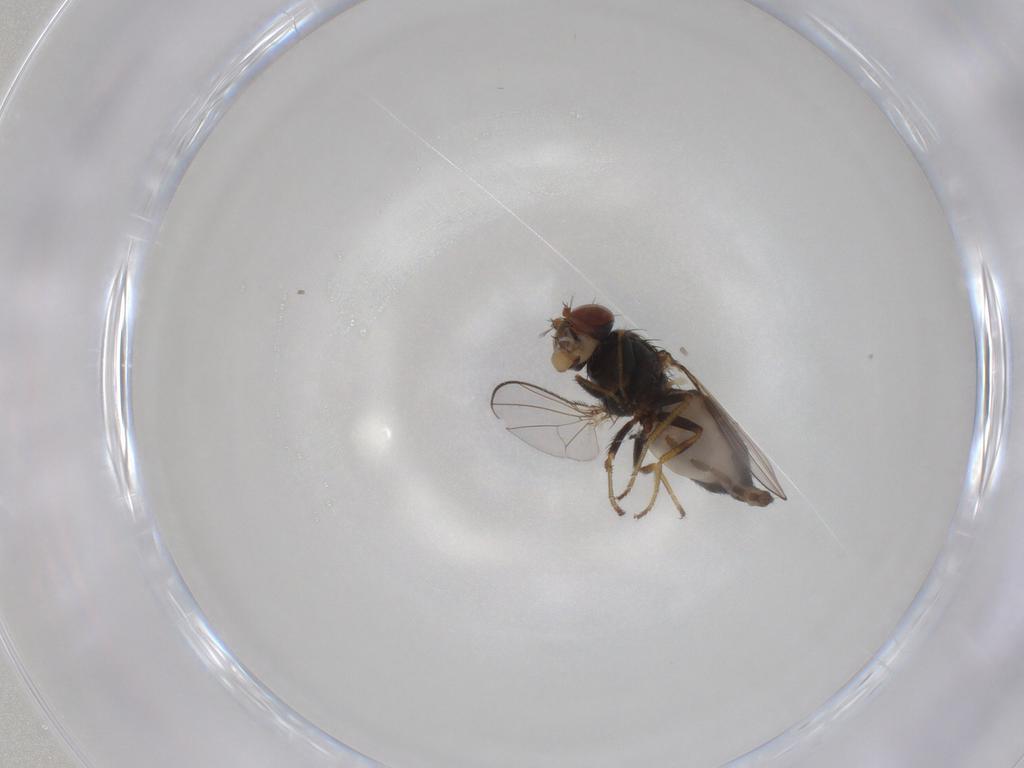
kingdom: Animalia
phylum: Arthropoda
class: Insecta
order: Diptera
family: Ephydridae
